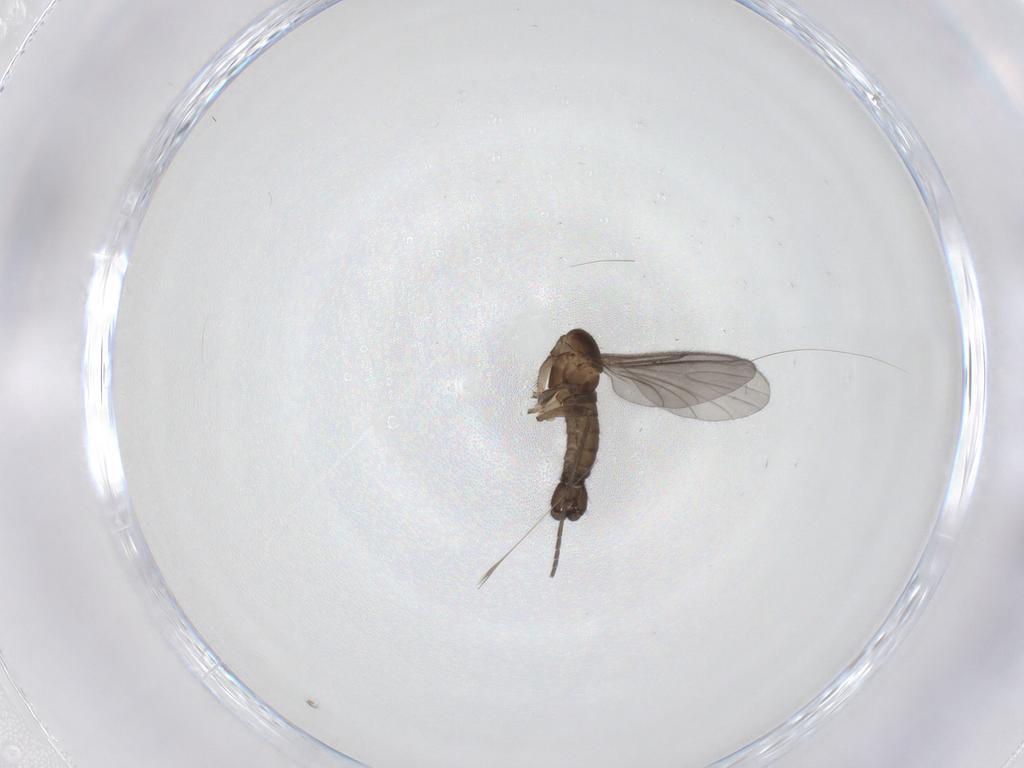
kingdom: Animalia
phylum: Arthropoda
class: Insecta
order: Diptera
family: Sciaridae
